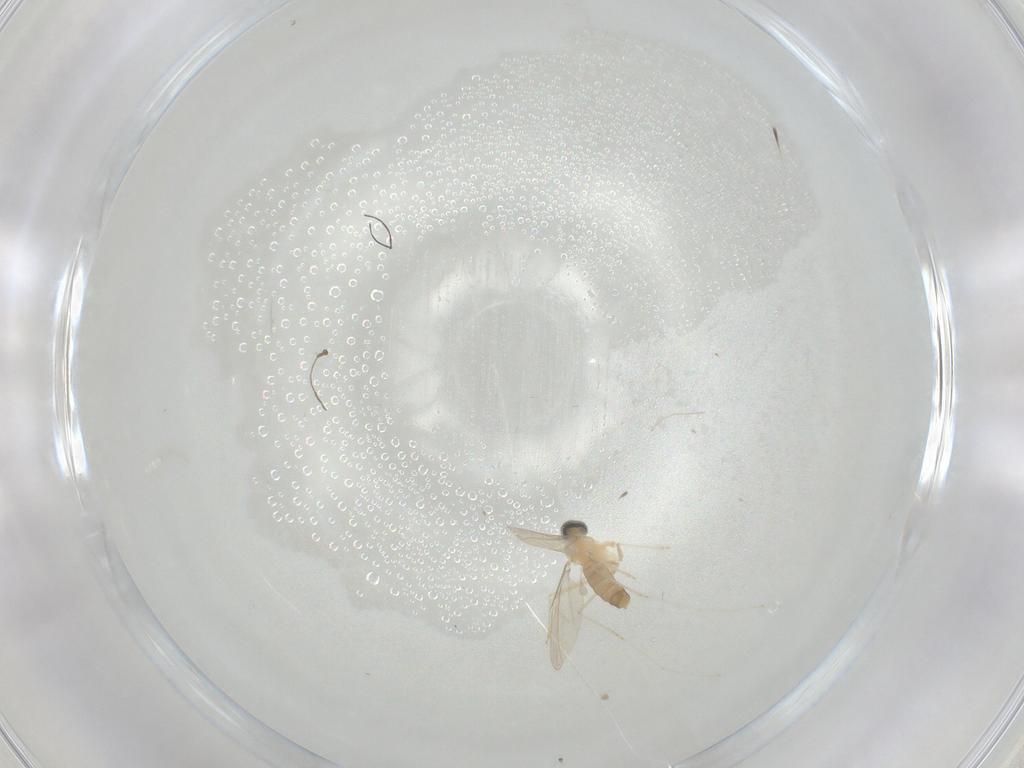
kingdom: Animalia
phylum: Arthropoda
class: Insecta
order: Diptera
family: Cecidomyiidae
